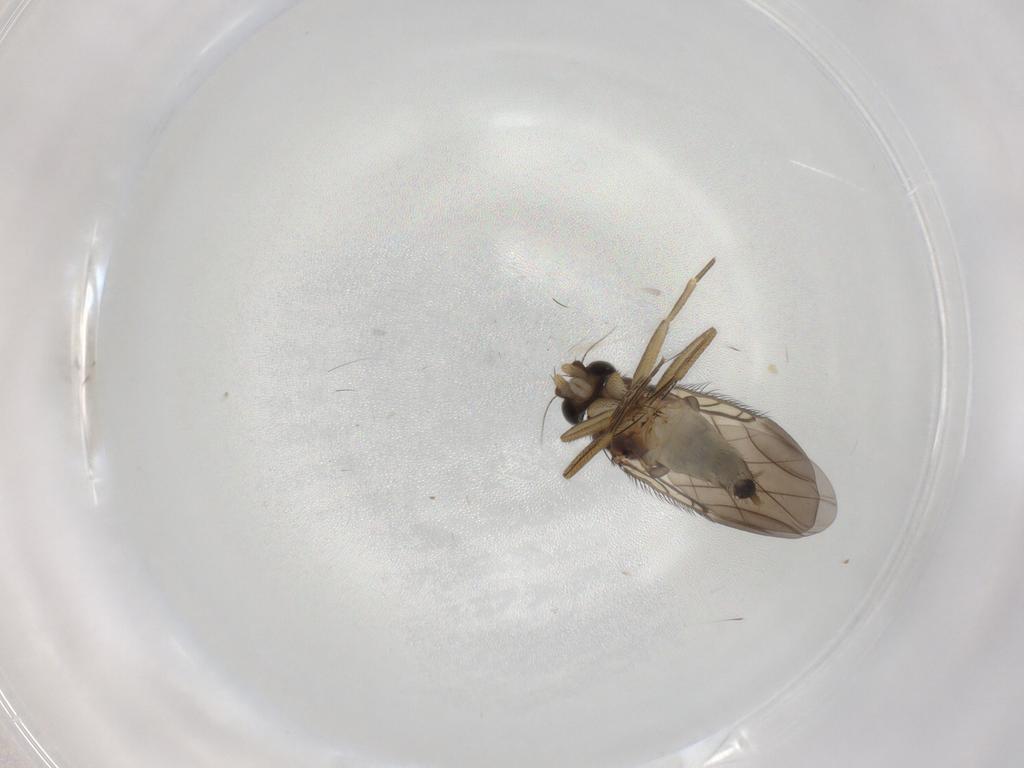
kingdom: Animalia
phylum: Arthropoda
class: Insecta
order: Diptera
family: Phoridae
